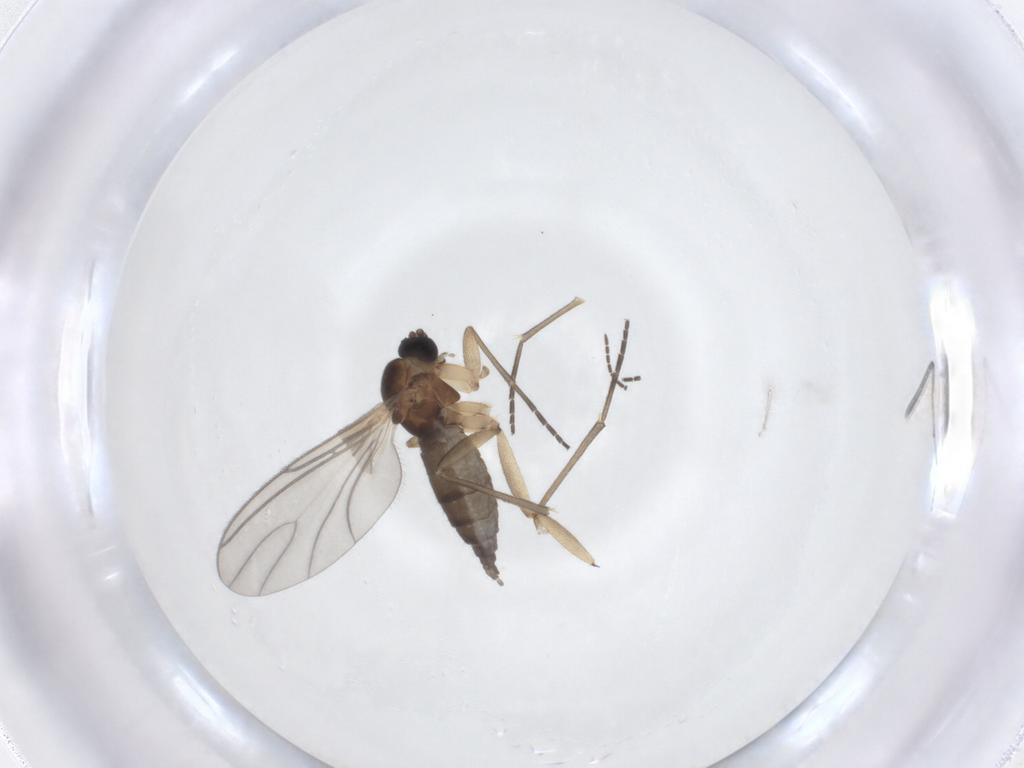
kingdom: Animalia
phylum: Arthropoda
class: Insecta
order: Diptera
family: Sciaridae
